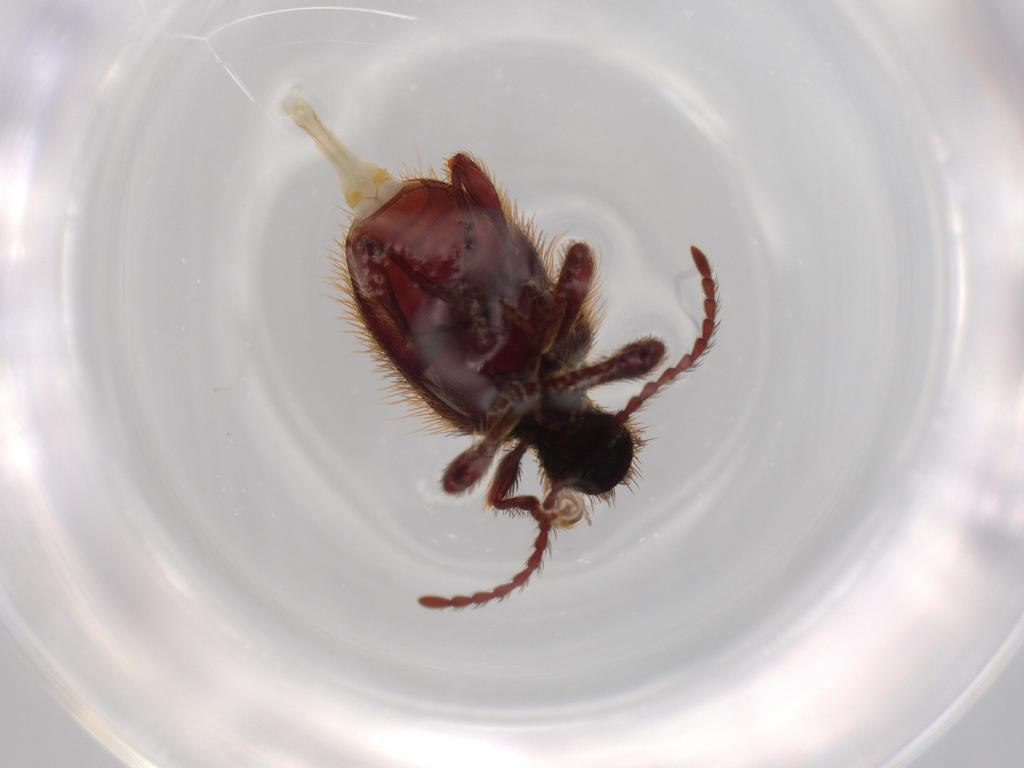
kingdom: Animalia
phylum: Arthropoda
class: Insecta
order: Coleoptera
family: Ptinidae
